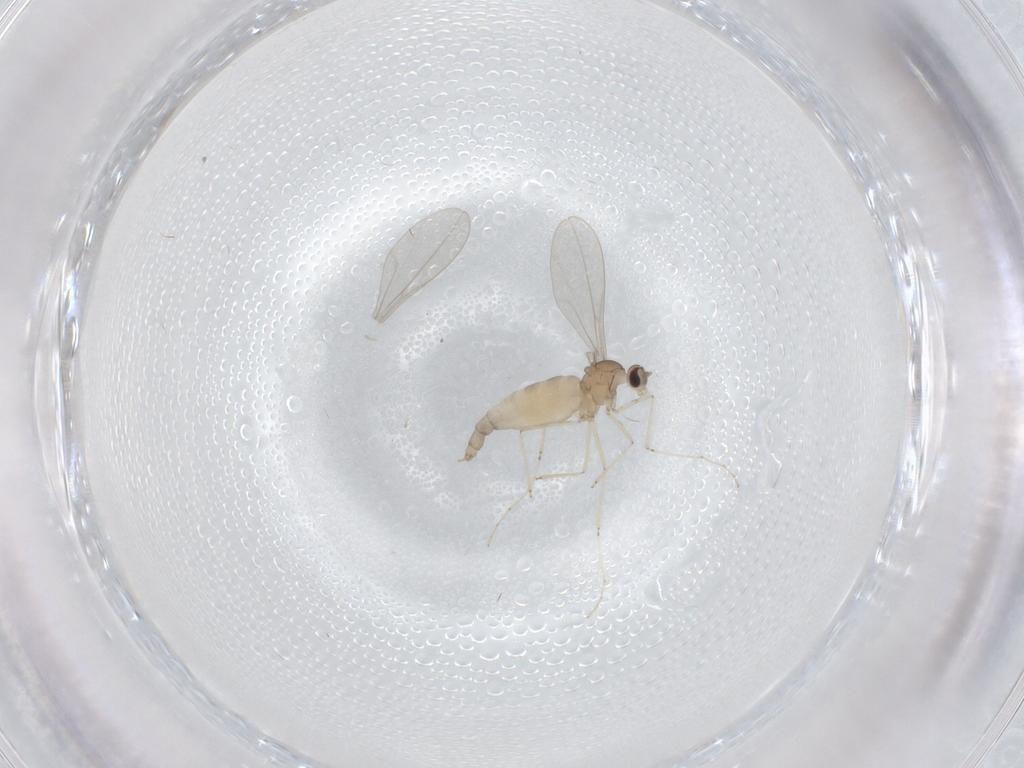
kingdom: Animalia
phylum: Arthropoda
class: Insecta
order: Diptera
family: Cecidomyiidae
